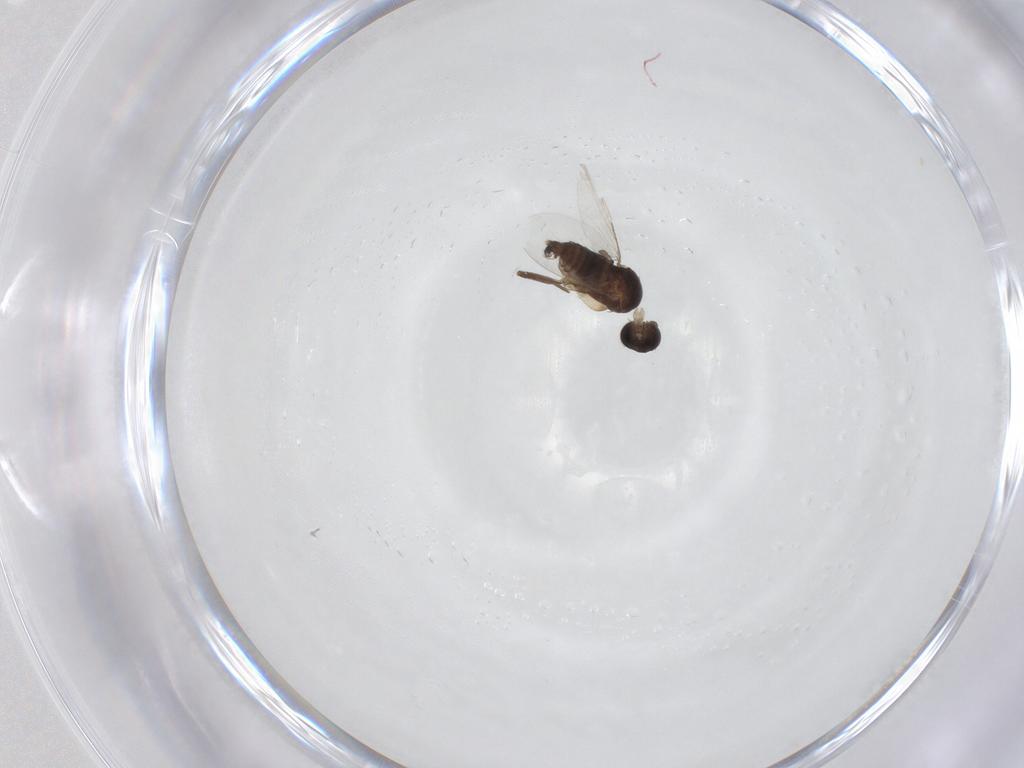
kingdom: Animalia
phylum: Arthropoda
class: Insecta
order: Diptera
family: Phoridae
